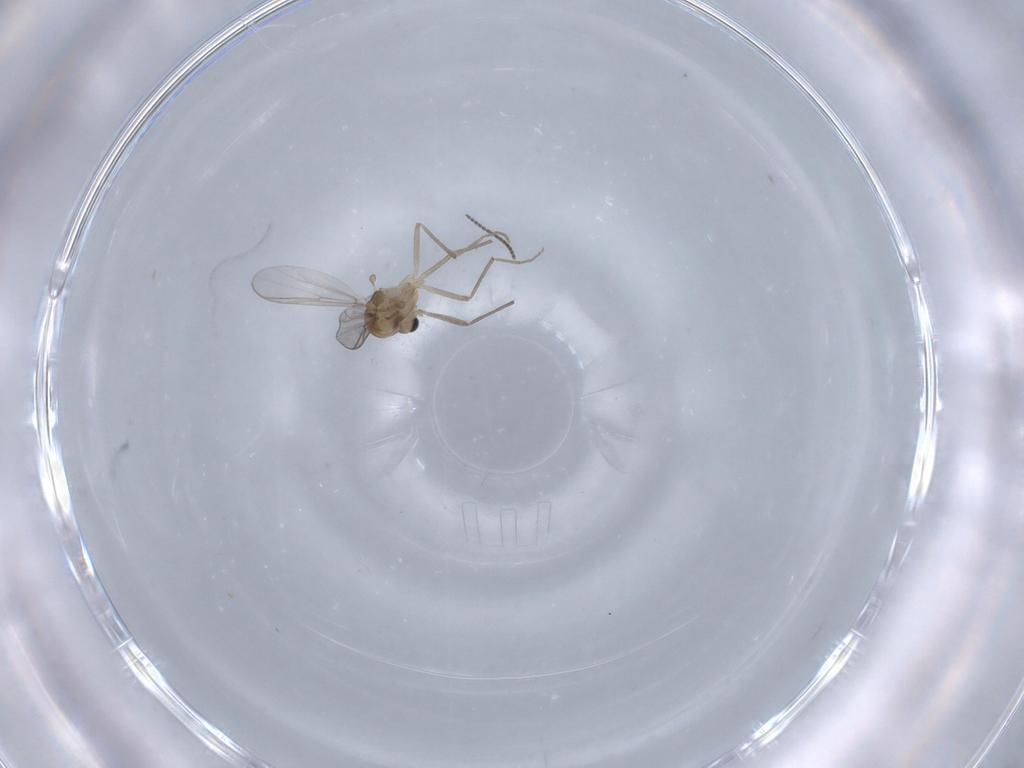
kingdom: Animalia
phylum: Arthropoda
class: Insecta
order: Diptera
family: Chironomidae
